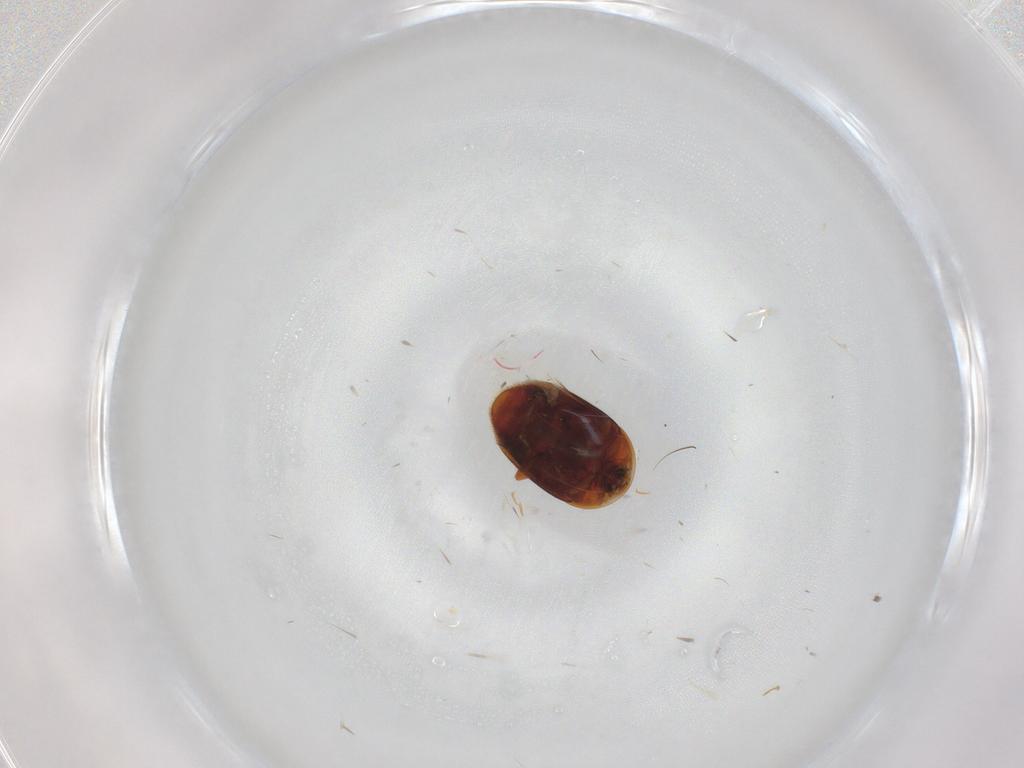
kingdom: Animalia
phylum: Arthropoda
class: Insecta
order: Coleoptera
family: Corylophidae
